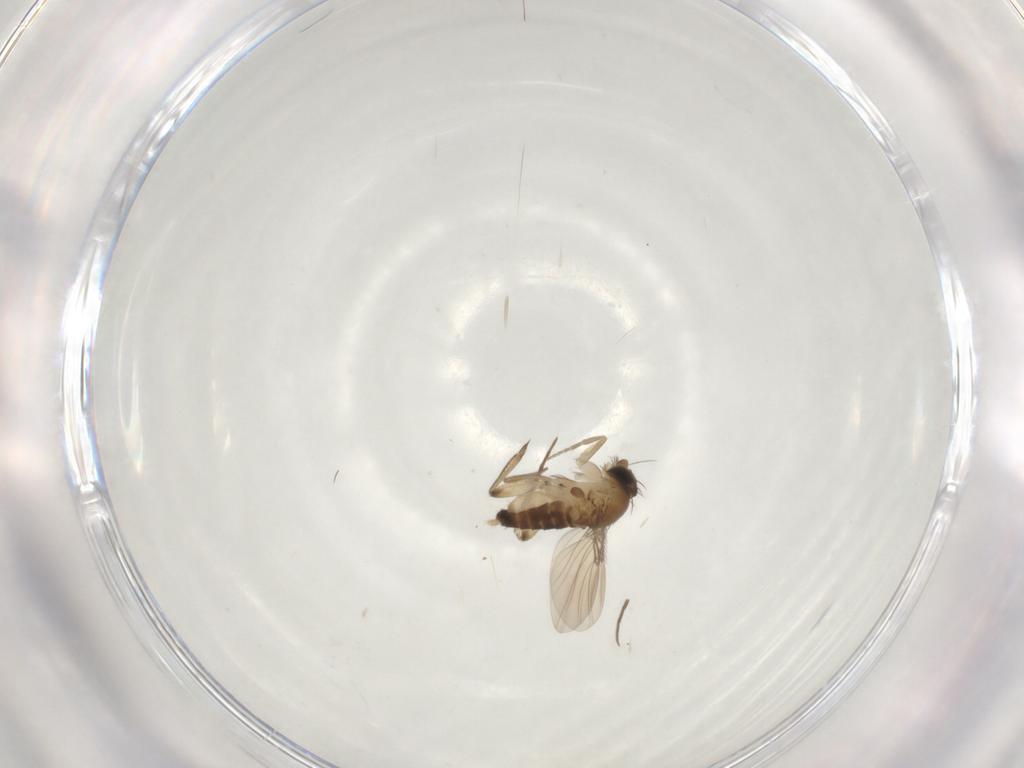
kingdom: Animalia
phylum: Arthropoda
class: Insecta
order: Diptera
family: Phoridae
